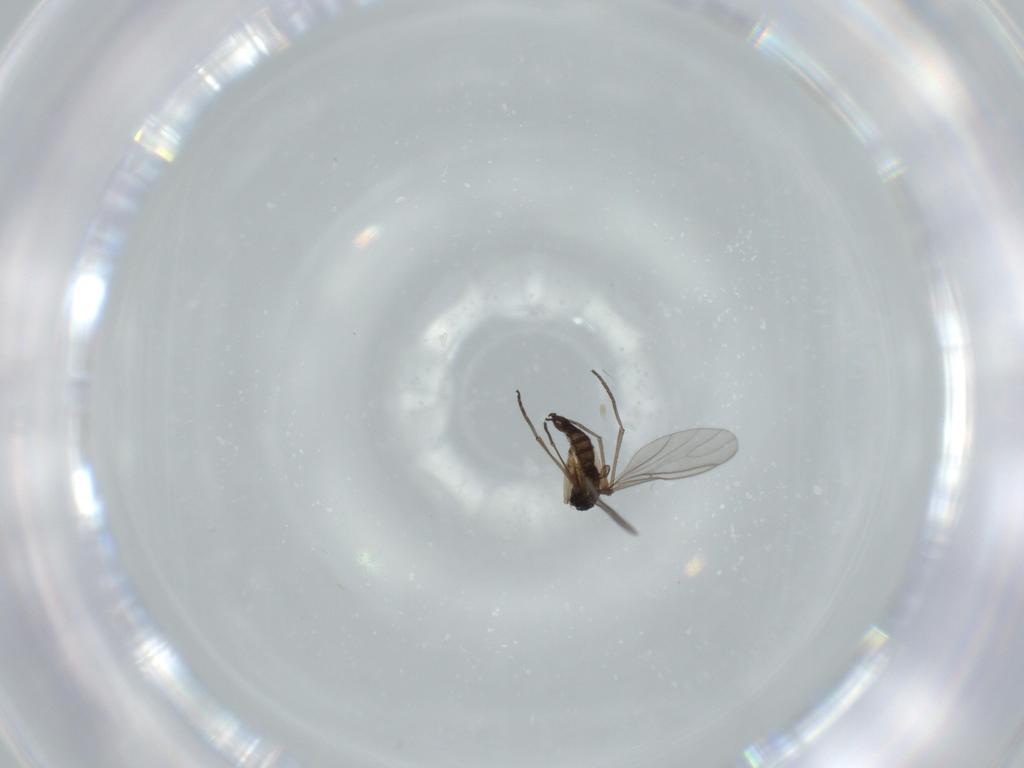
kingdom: Animalia
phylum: Arthropoda
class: Insecta
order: Diptera
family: Sciaridae
